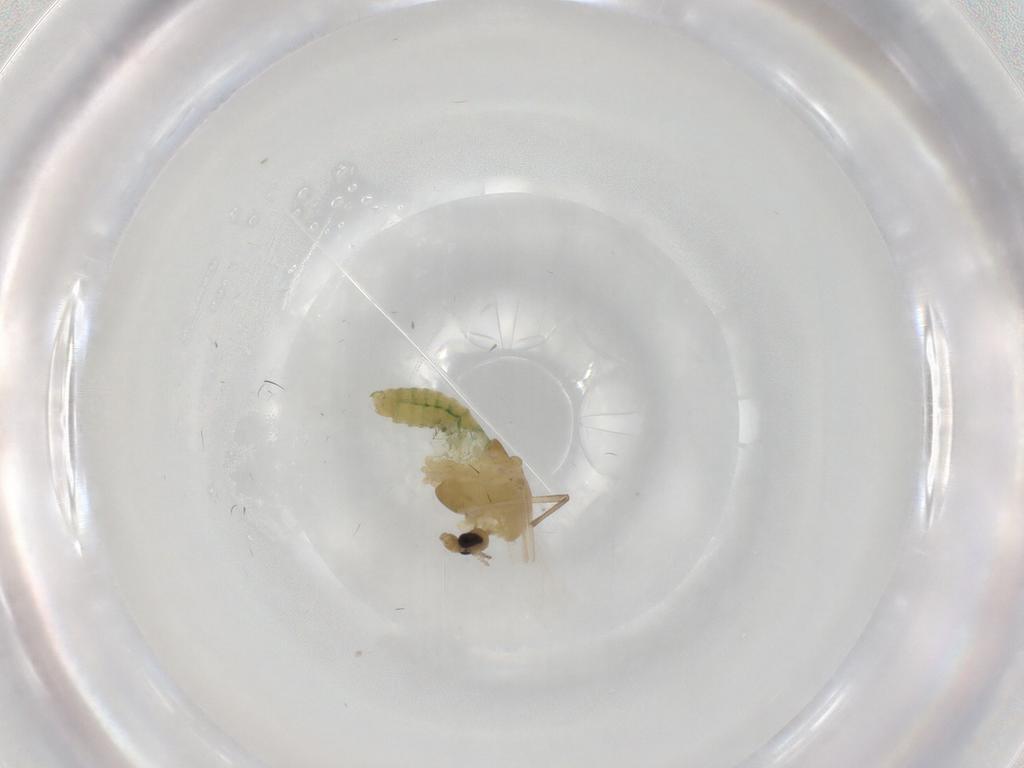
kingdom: Animalia
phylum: Arthropoda
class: Insecta
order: Diptera
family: Chironomidae
